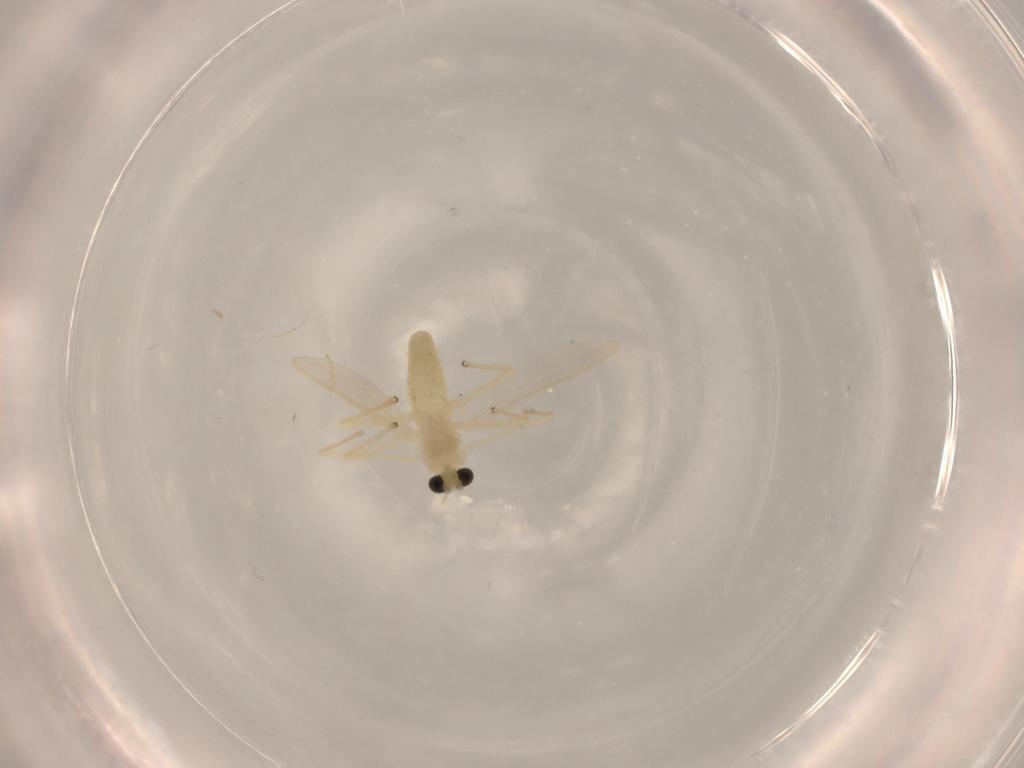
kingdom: Animalia
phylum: Arthropoda
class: Insecta
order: Diptera
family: Chironomidae
